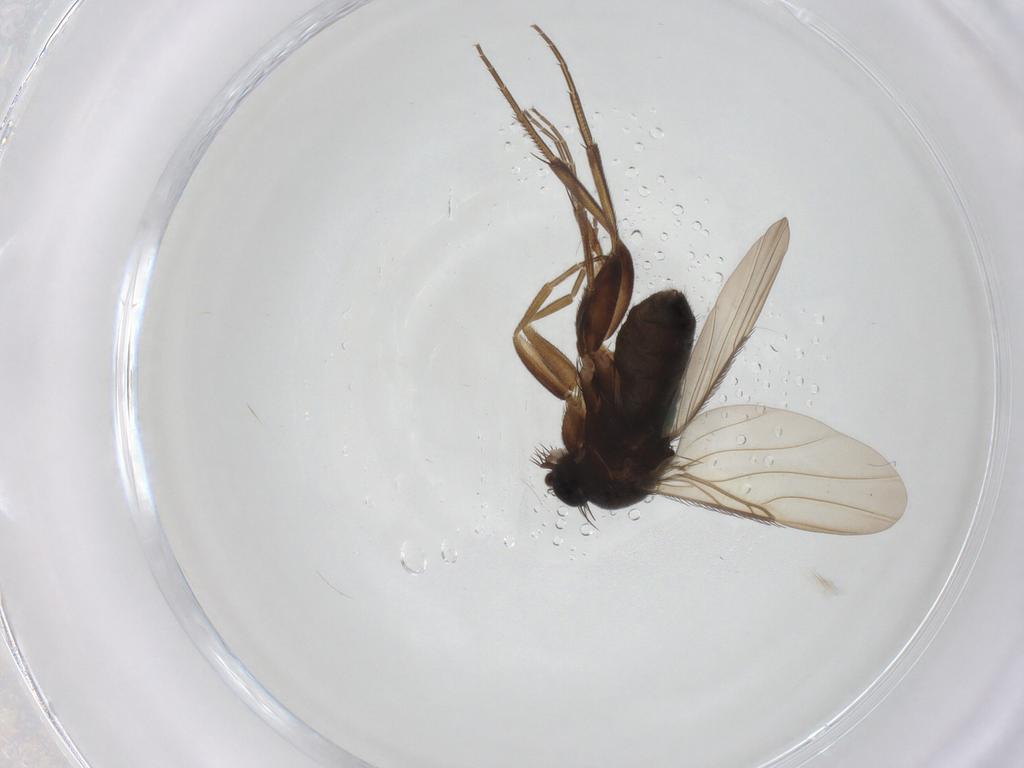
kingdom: Animalia
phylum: Arthropoda
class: Insecta
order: Diptera
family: Phoridae
